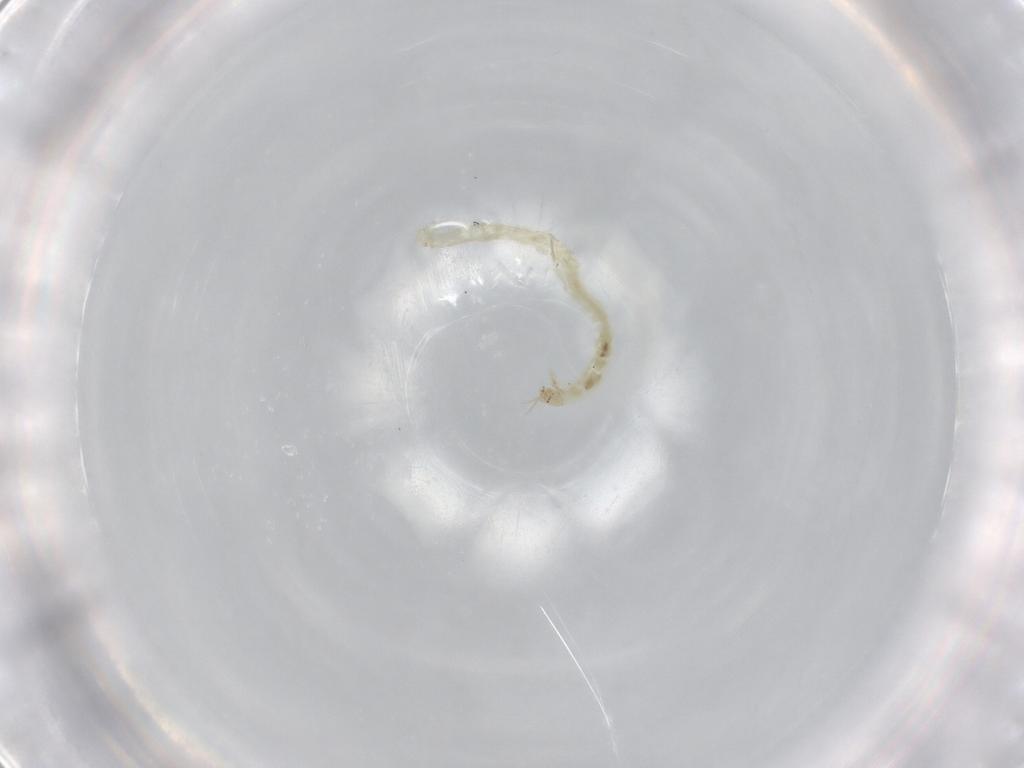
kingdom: Animalia
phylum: Arthropoda
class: Insecta
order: Diptera
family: Chironomidae
